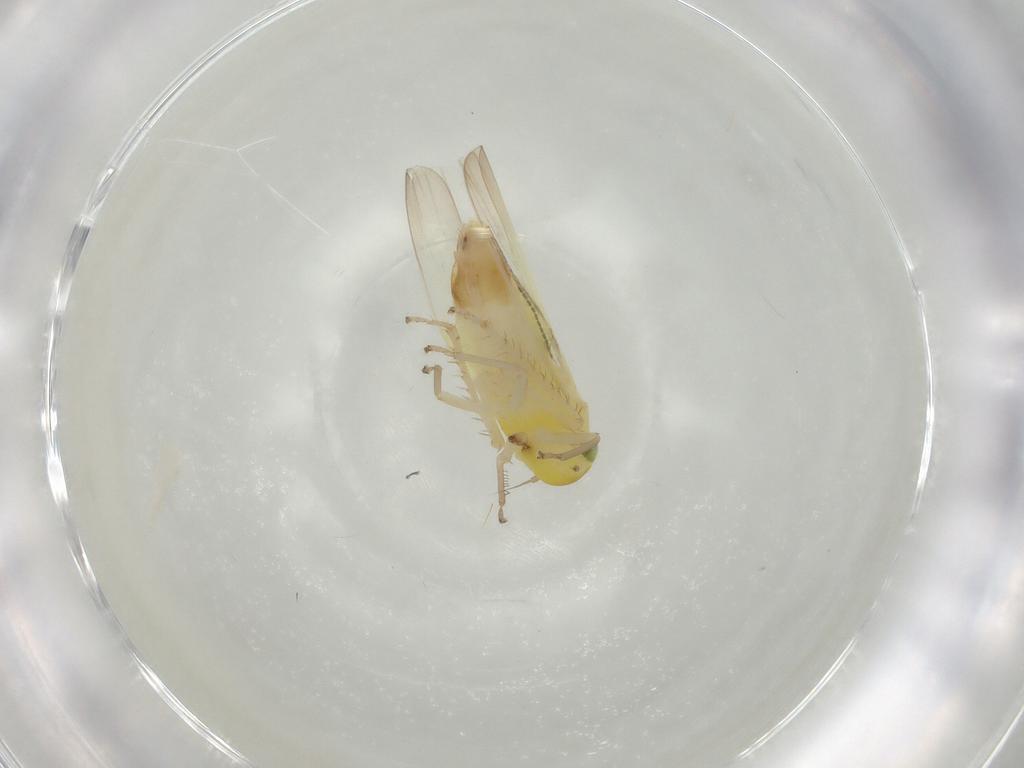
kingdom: Animalia
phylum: Arthropoda
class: Insecta
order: Hemiptera
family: Cicadellidae
